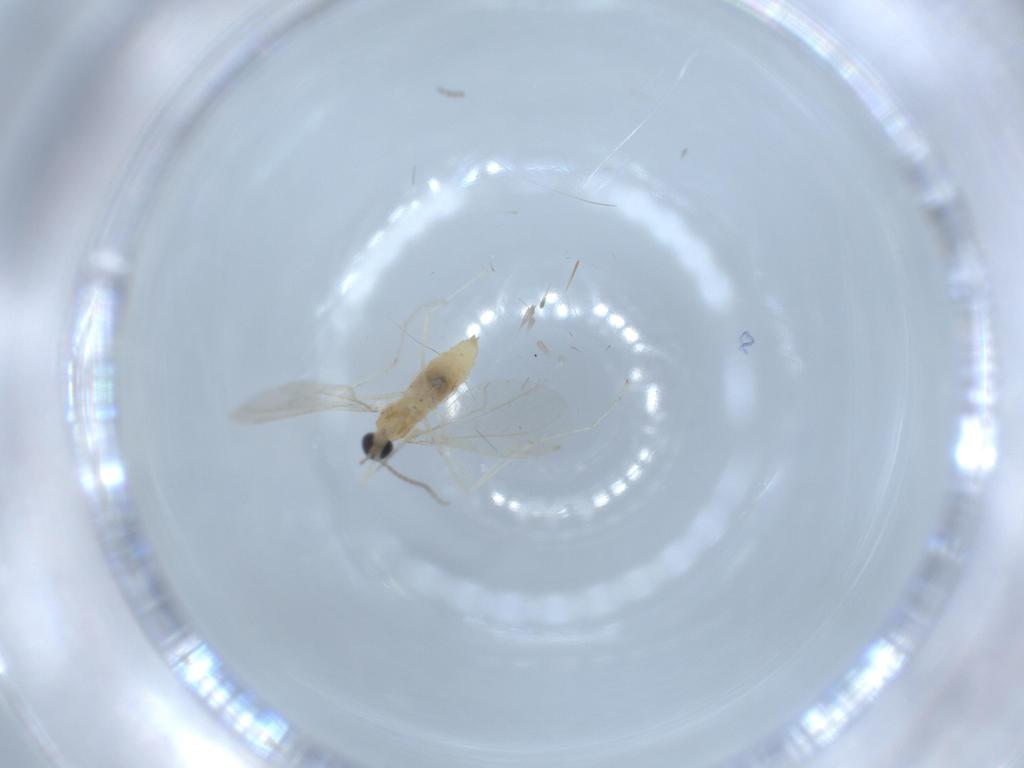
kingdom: Animalia
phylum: Arthropoda
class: Insecta
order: Diptera
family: Cecidomyiidae
